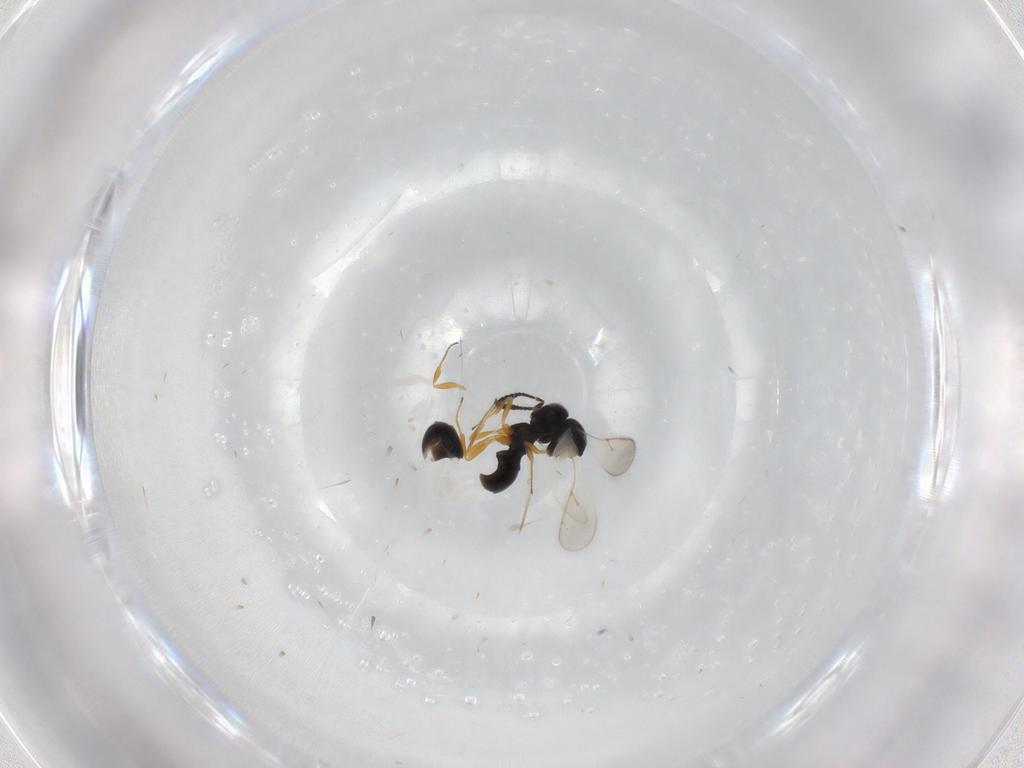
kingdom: Animalia
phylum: Arthropoda
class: Insecta
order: Hymenoptera
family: Scelionidae
